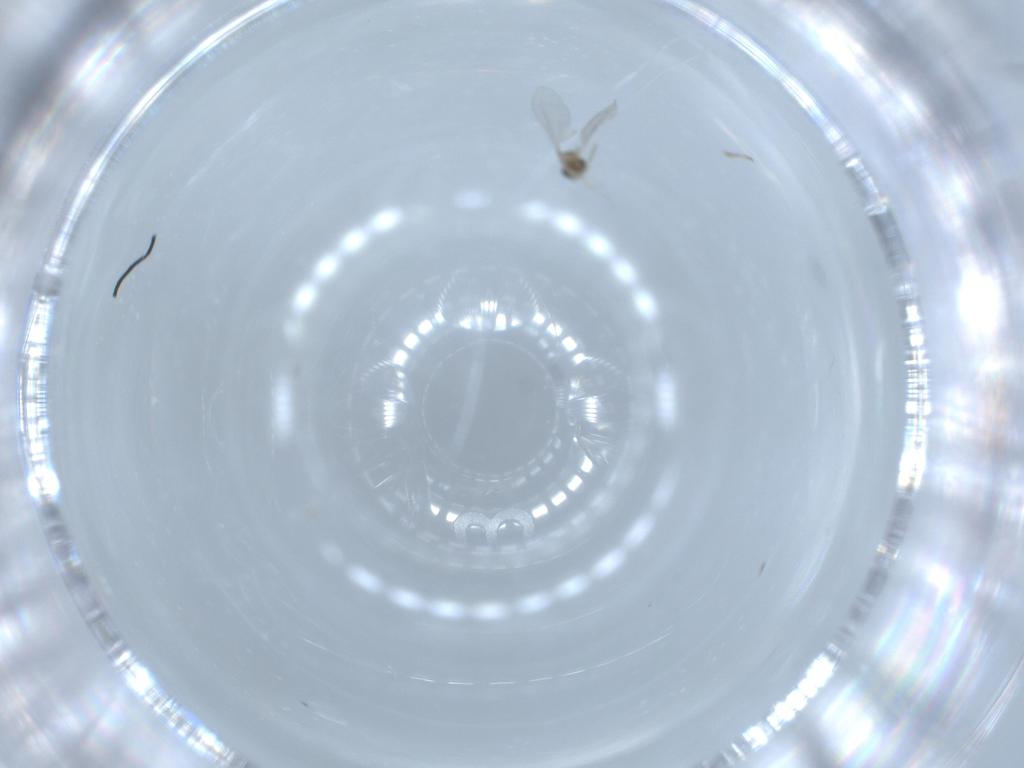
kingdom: Animalia
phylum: Arthropoda
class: Insecta
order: Diptera
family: Cecidomyiidae
